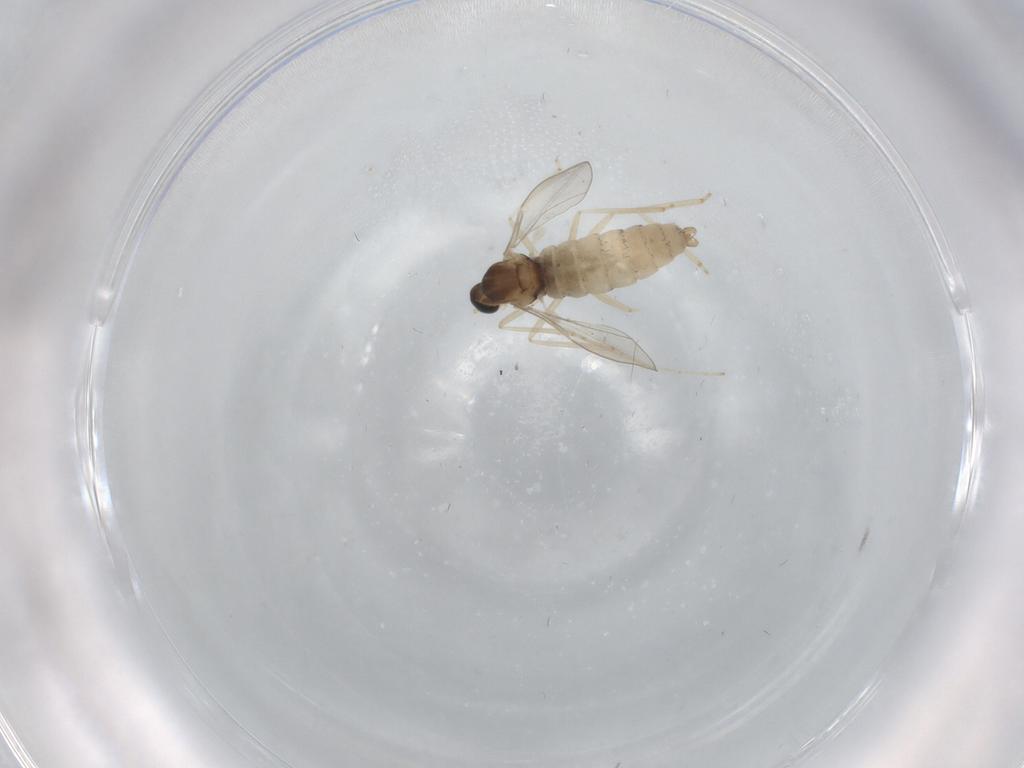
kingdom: Animalia
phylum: Arthropoda
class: Insecta
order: Diptera
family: Cecidomyiidae
